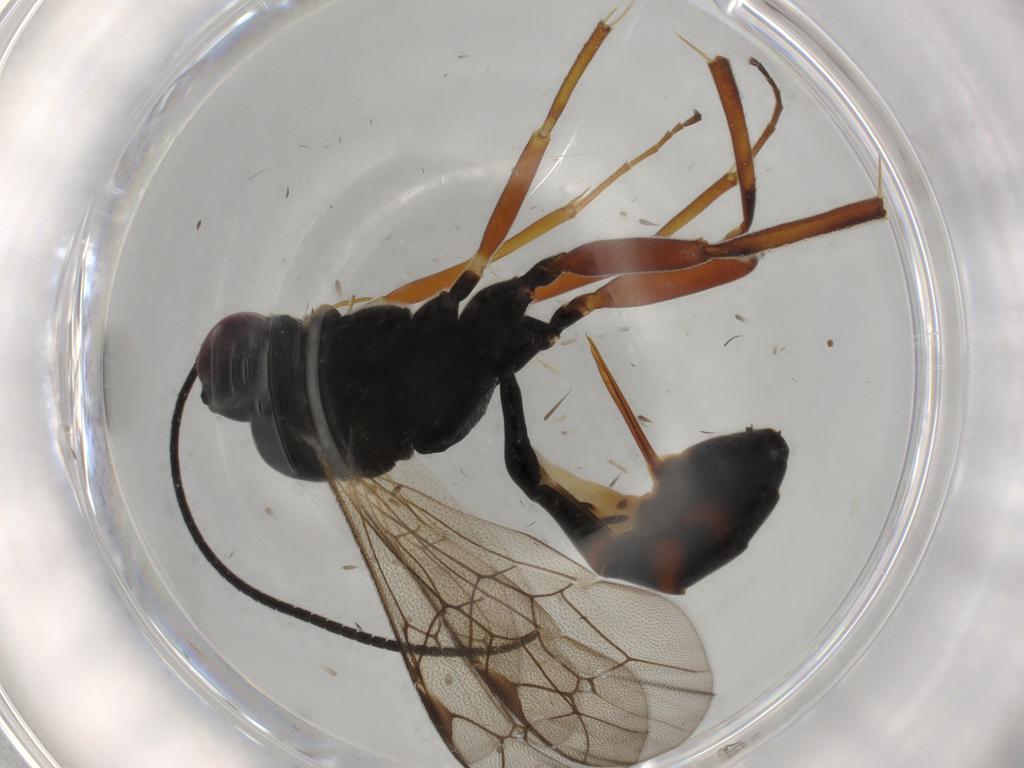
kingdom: Animalia
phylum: Arthropoda
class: Insecta
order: Hymenoptera
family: Ichneumonidae
